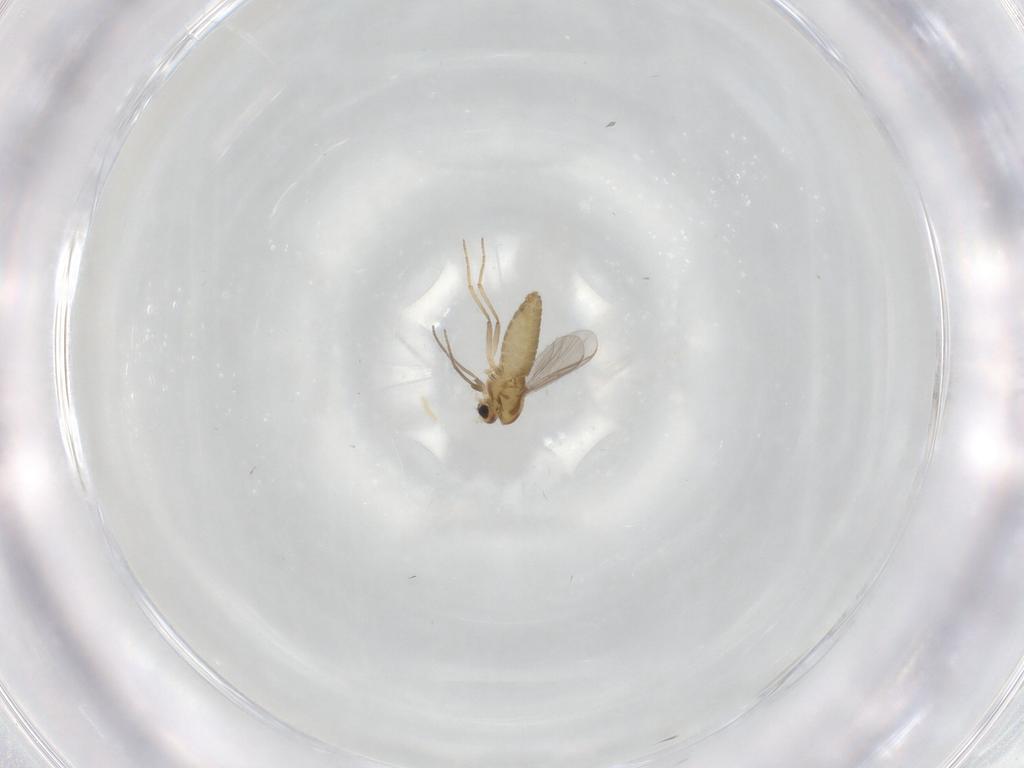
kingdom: Animalia
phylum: Arthropoda
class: Insecta
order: Diptera
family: Chironomidae
